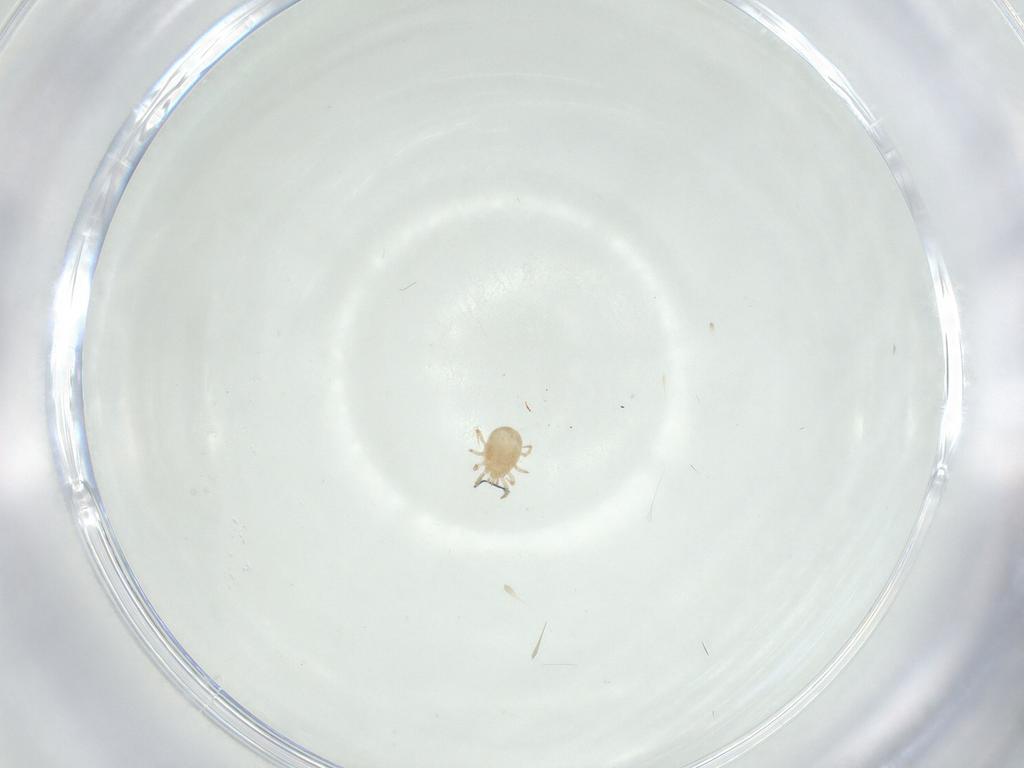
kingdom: Animalia
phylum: Arthropoda
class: Arachnida
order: Mesostigmata
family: Phytoseiidae
